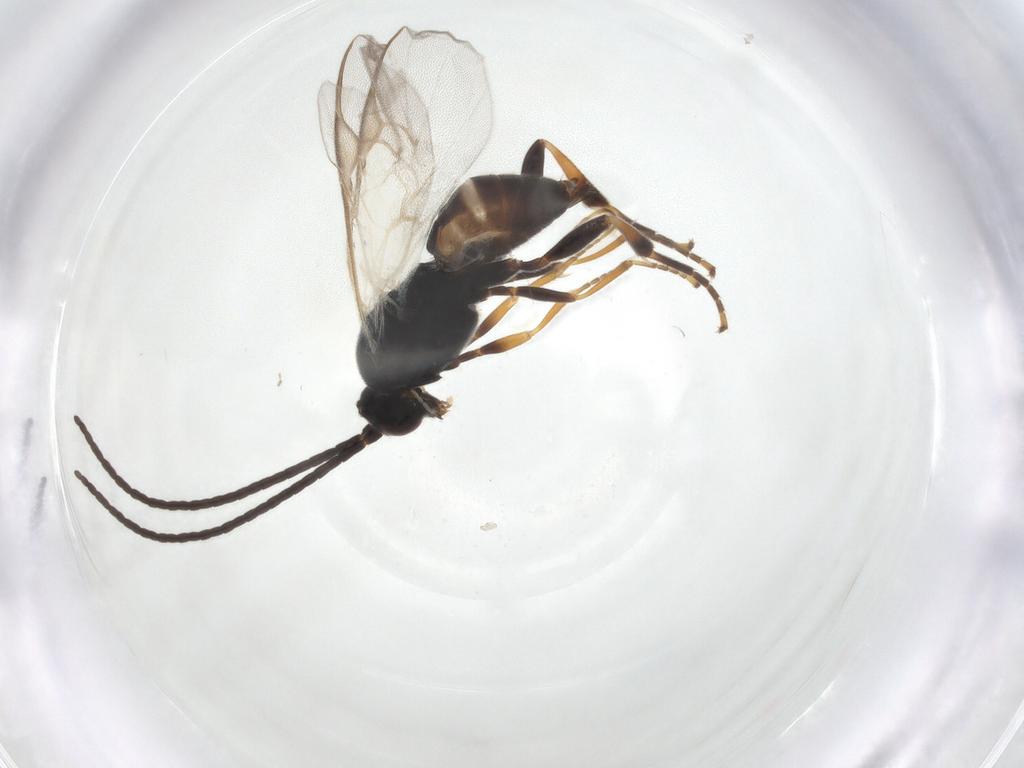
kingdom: Animalia
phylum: Arthropoda
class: Insecta
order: Hymenoptera
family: Braconidae
